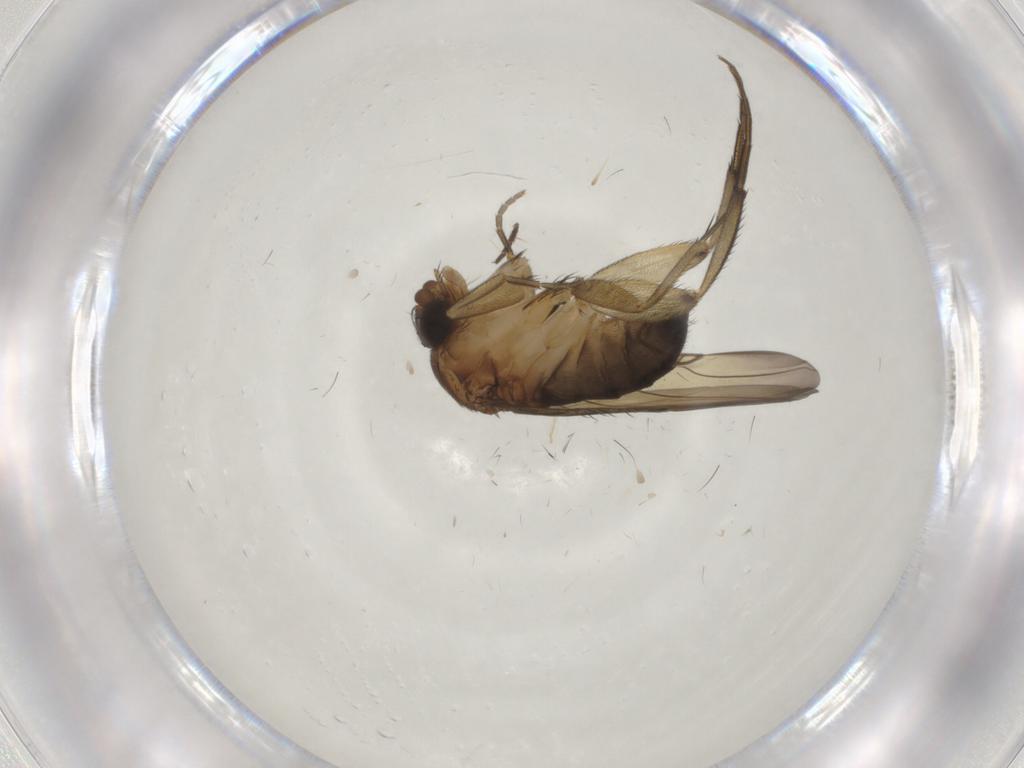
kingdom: Animalia
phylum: Arthropoda
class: Insecta
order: Diptera
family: Phoridae
